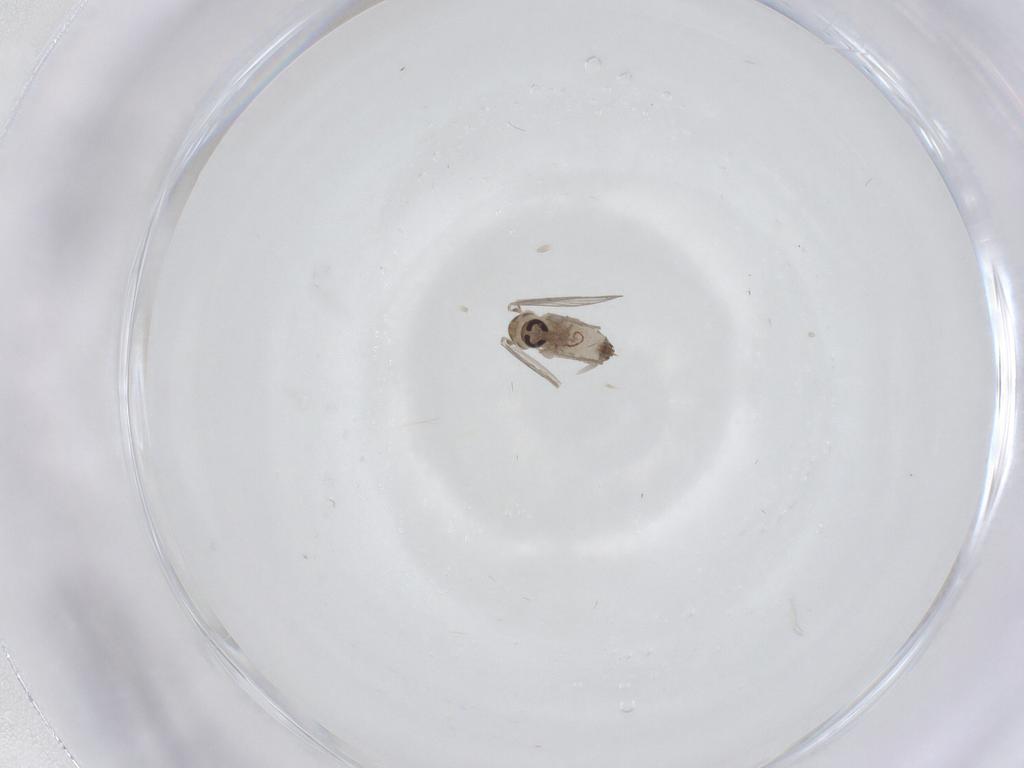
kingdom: Animalia
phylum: Arthropoda
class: Insecta
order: Diptera
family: Psychodidae
